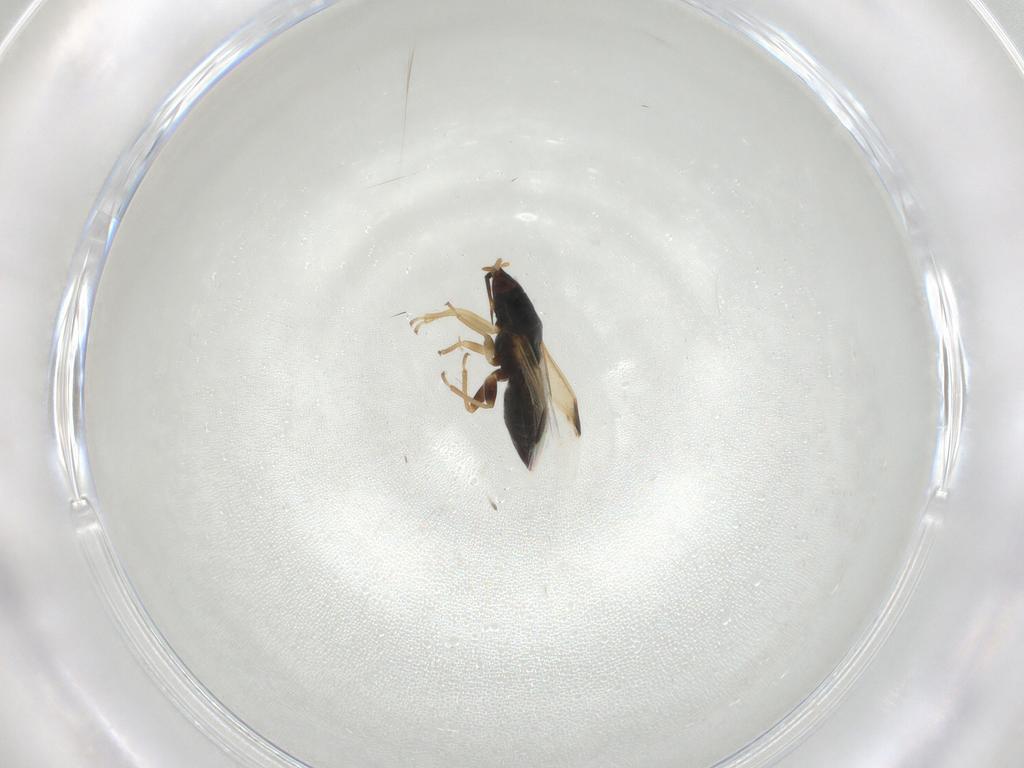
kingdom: Animalia
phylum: Arthropoda
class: Insecta
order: Hemiptera
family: Anthocoridae
